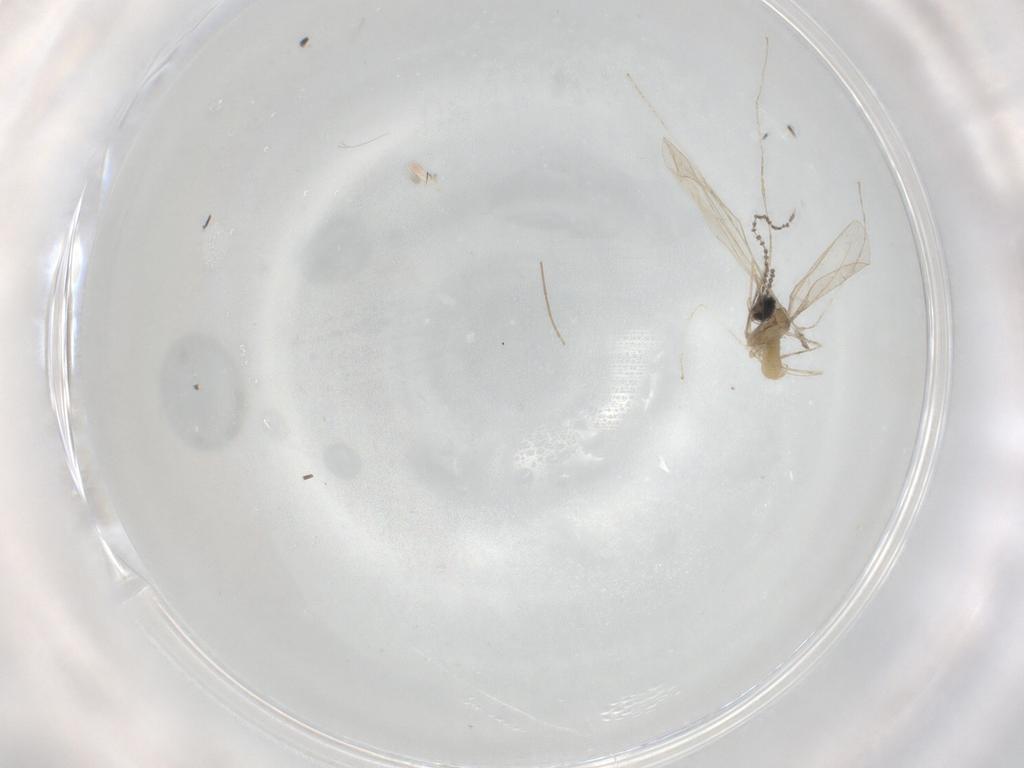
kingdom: Animalia
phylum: Arthropoda
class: Insecta
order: Diptera
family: Cecidomyiidae
